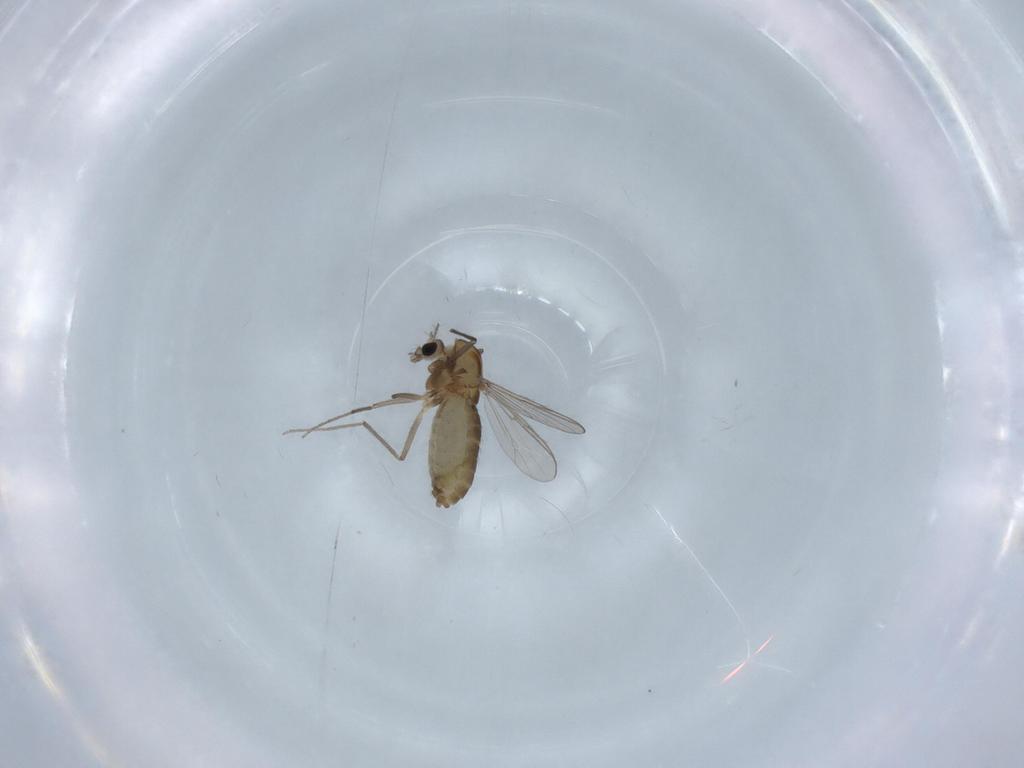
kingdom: Animalia
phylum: Arthropoda
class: Insecta
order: Diptera
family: Chironomidae
